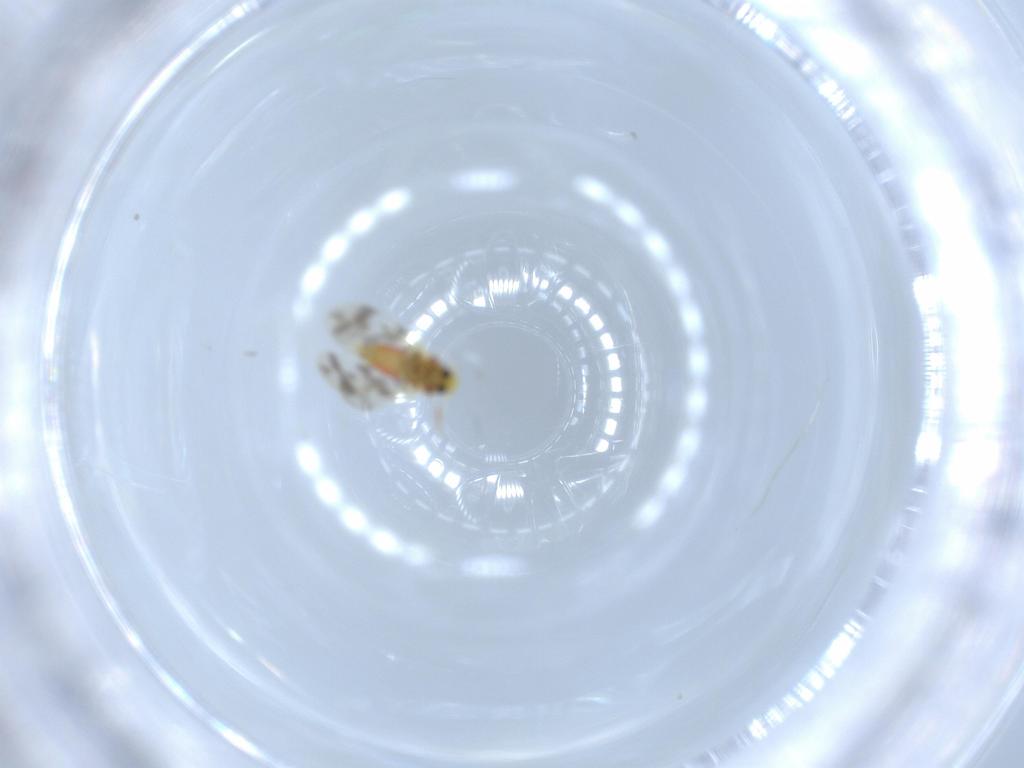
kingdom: Animalia
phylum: Arthropoda
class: Insecta
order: Hemiptera
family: Aleyrodidae
